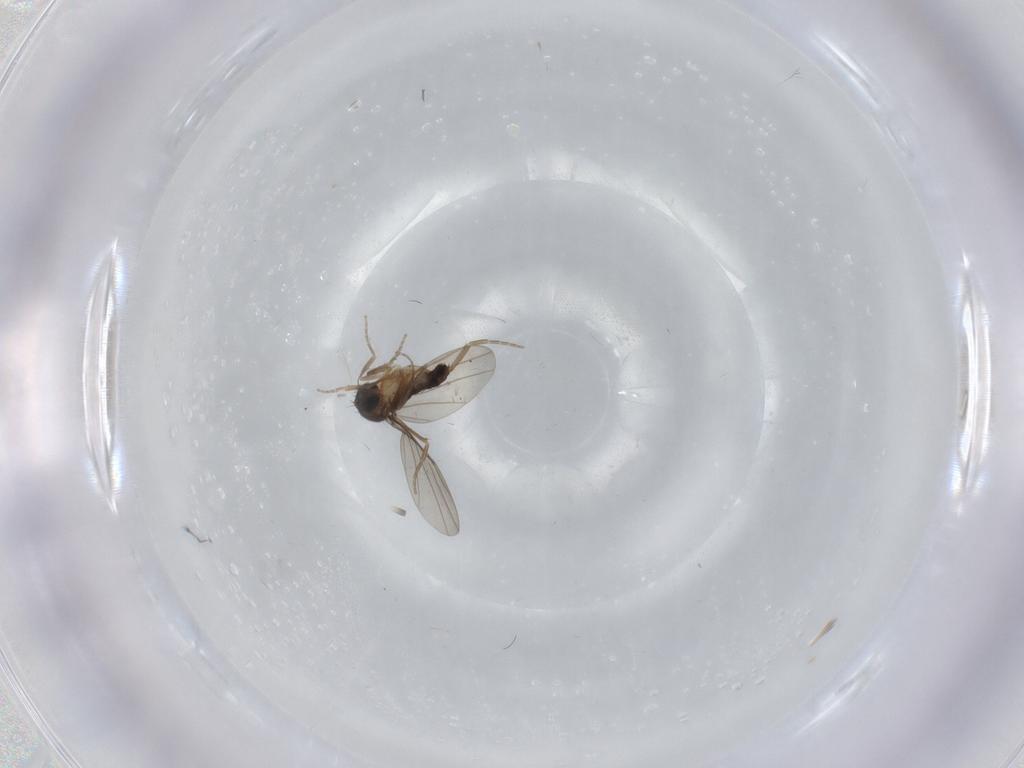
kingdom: Animalia
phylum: Arthropoda
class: Insecta
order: Diptera
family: Phoridae
